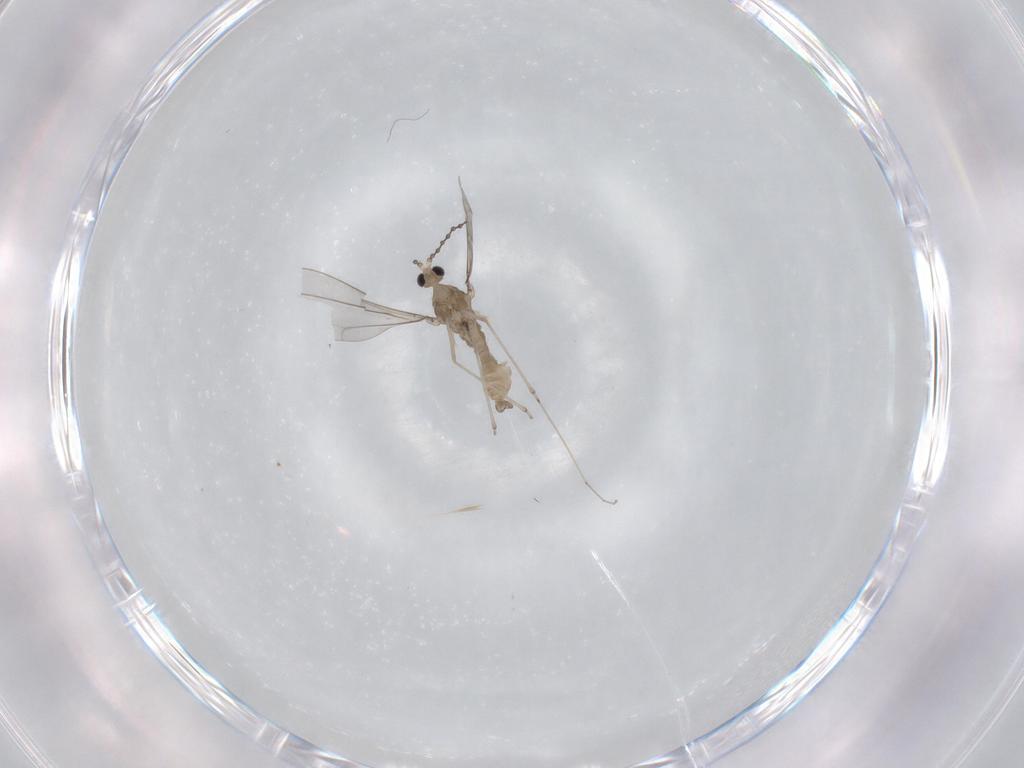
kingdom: Animalia
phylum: Arthropoda
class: Insecta
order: Diptera
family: Cecidomyiidae
